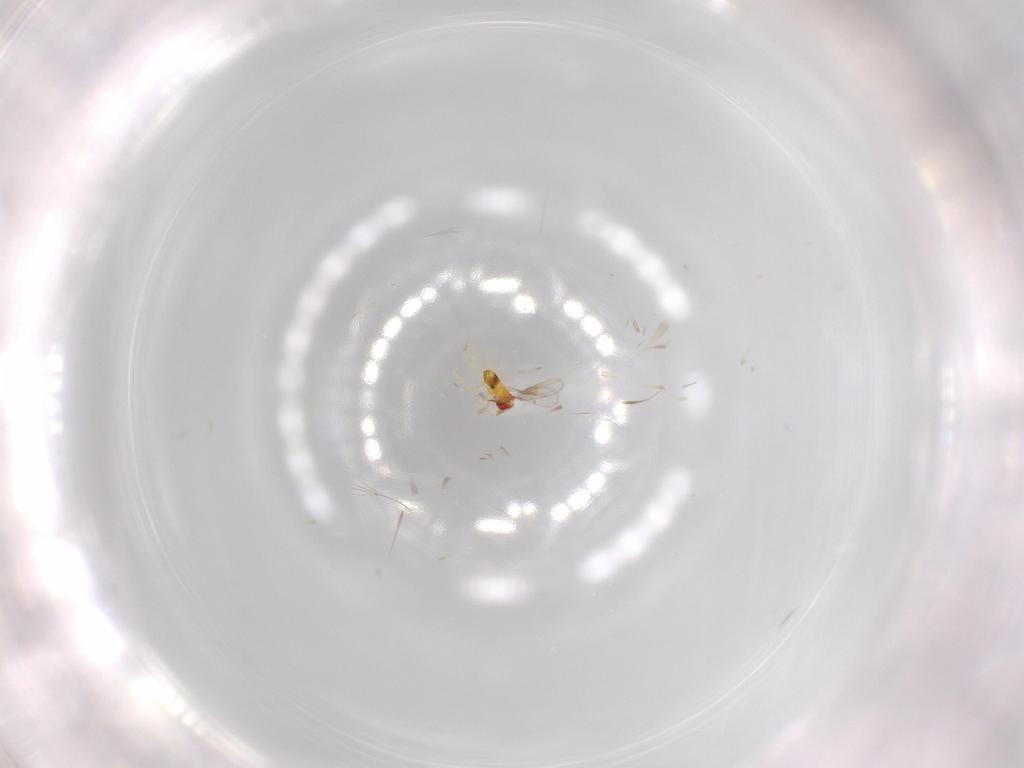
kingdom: Animalia
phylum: Arthropoda
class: Insecta
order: Hymenoptera
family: Trichogrammatidae
